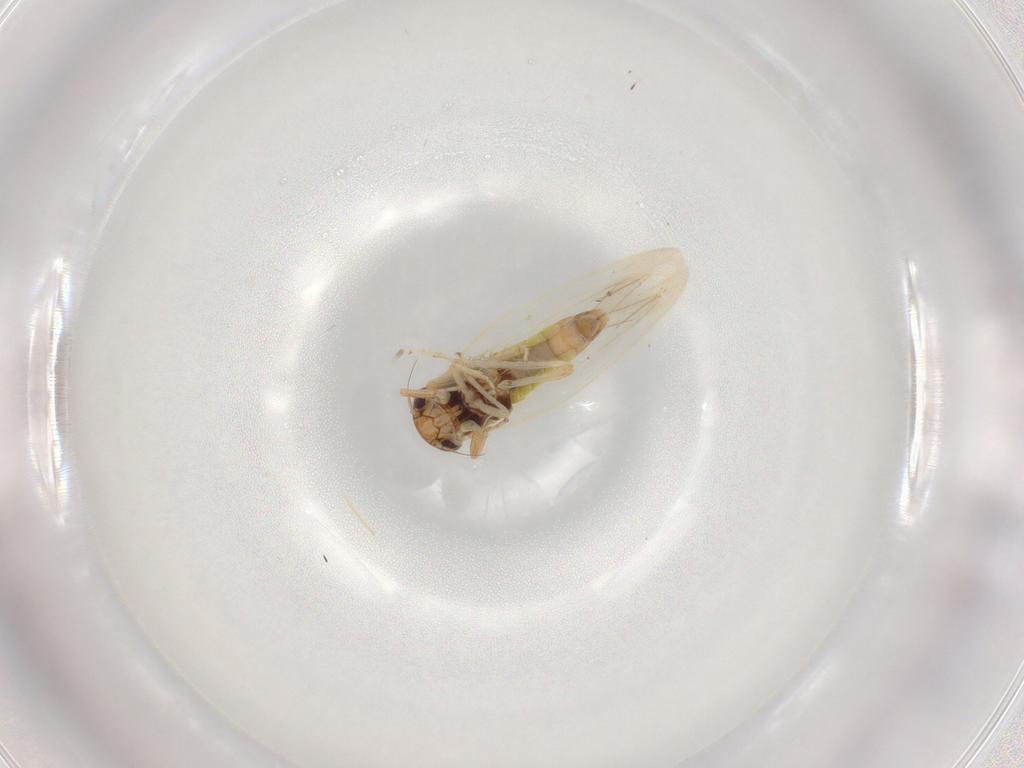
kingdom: Animalia
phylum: Arthropoda
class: Insecta
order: Hemiptera
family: Cicadellidae
